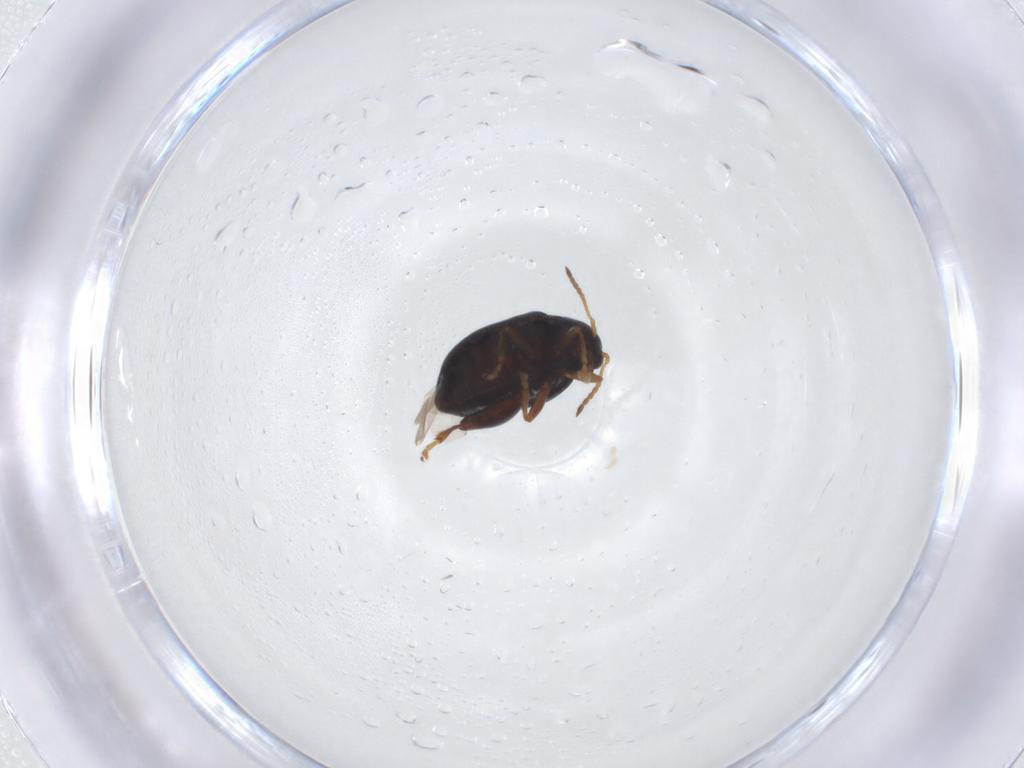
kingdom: Animalia
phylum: Arthropoda
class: Insecta
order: Coleoptera
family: Chrysomelidae
